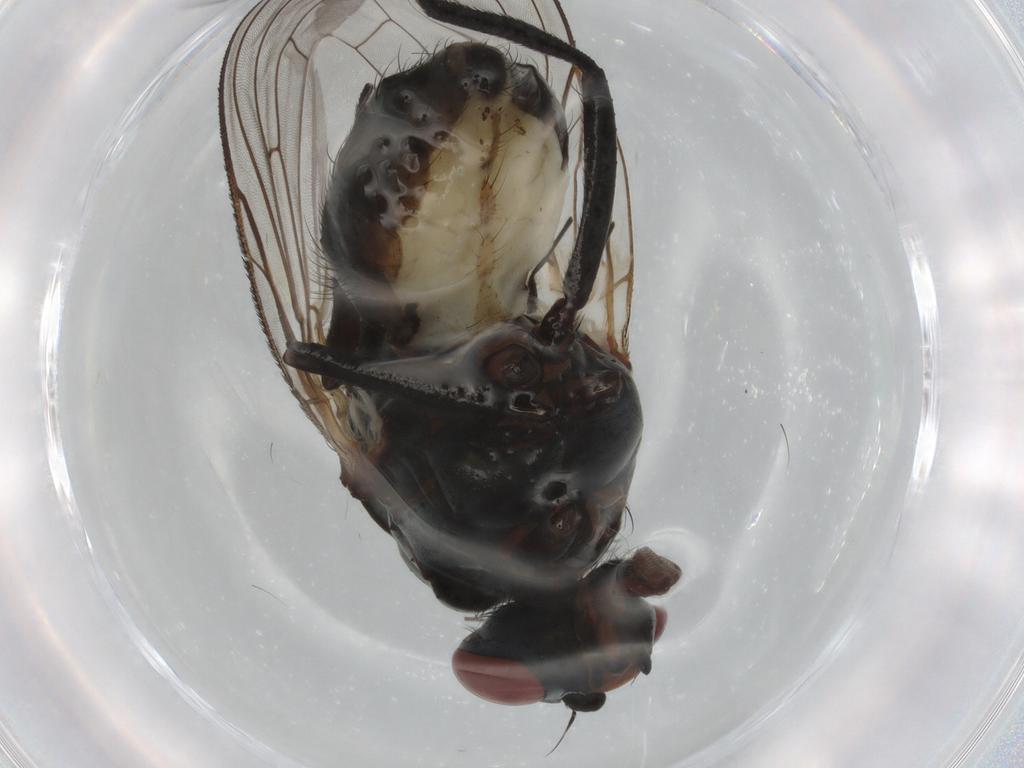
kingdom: Animalia
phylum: Arthropoda
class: Insecta
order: Diptera
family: Anthomyiidae
